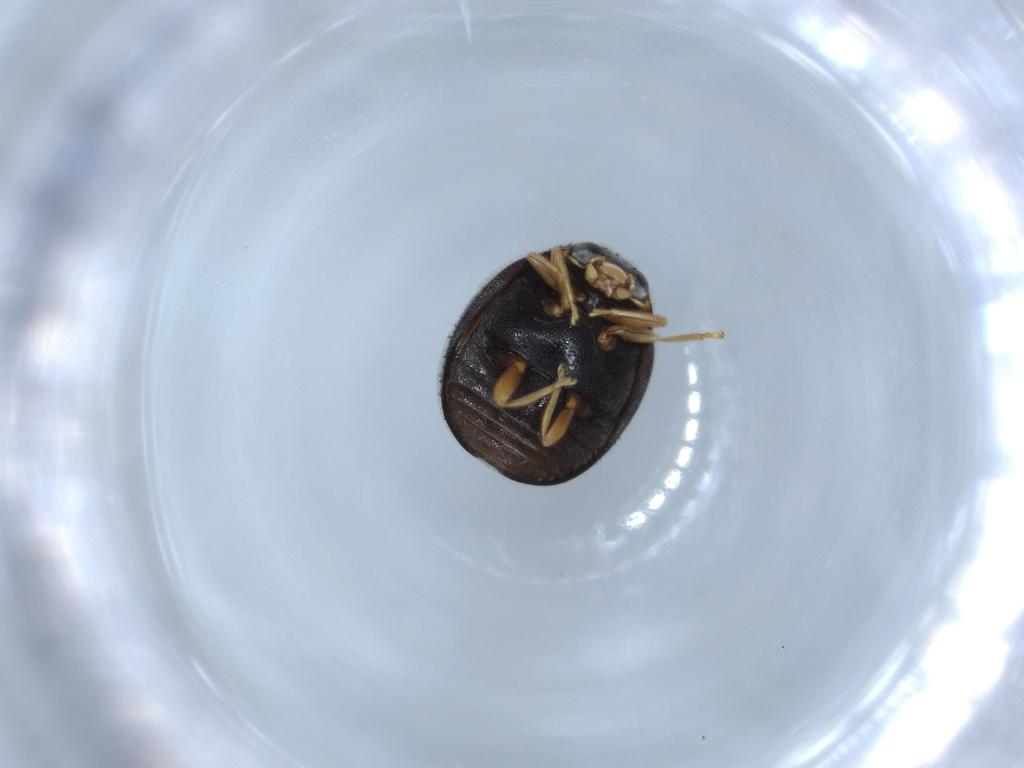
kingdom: Animalia
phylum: Arthropoda
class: Insecta
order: Coleoptera
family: Coccinellidae
